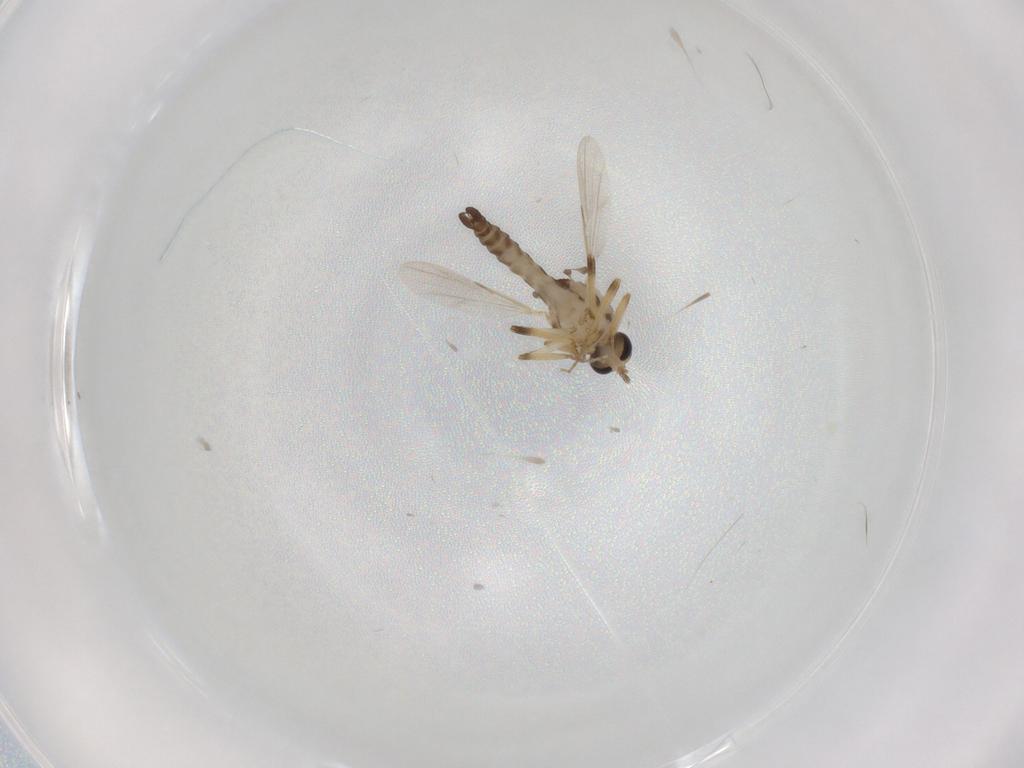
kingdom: Animalia
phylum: Arthropoda
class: Insecta
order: Diptera
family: Ceratopogonidae
